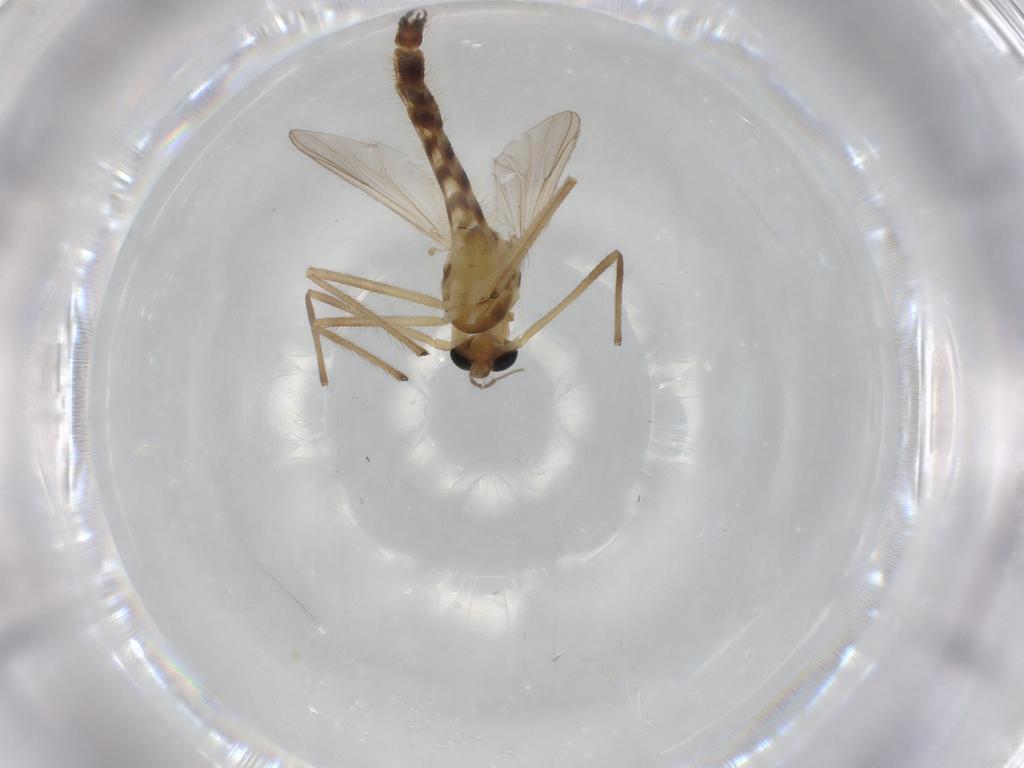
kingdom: Animalia
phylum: Arthropoda
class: Insecta
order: Diptera
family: Chironomidae
